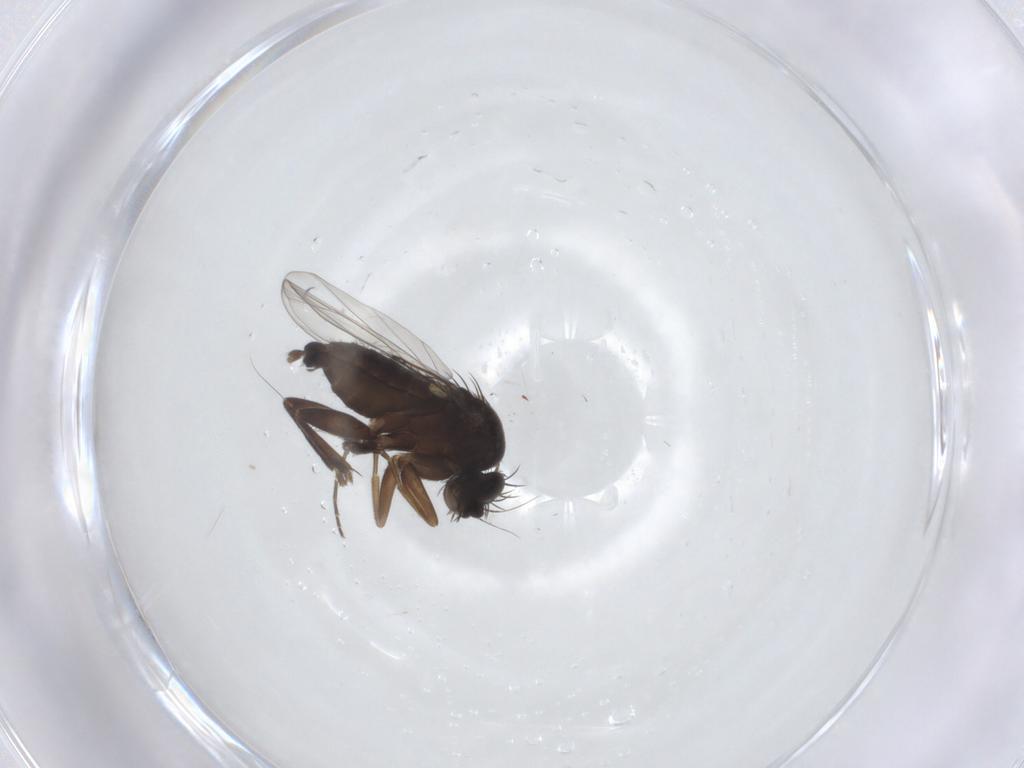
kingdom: Animalia
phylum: Arthropoda
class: Insecta
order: Diptera
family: Phoridae
